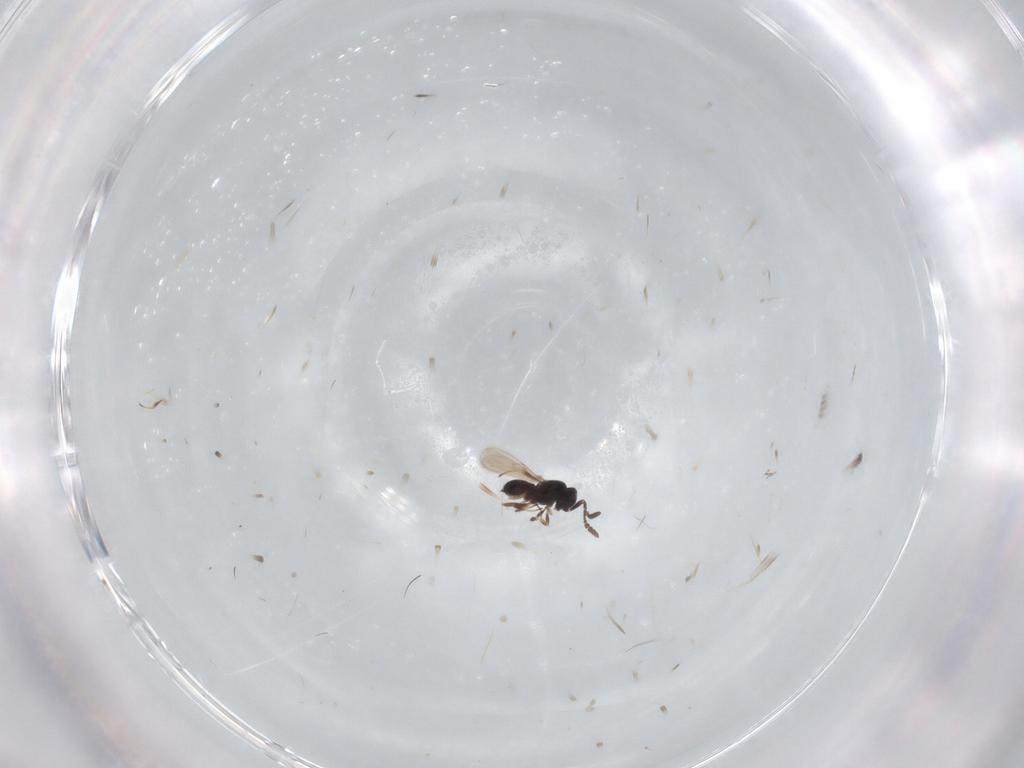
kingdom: Animalia
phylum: Arthropoda
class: Insecta
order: Hymenoptera
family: Scelionidae
